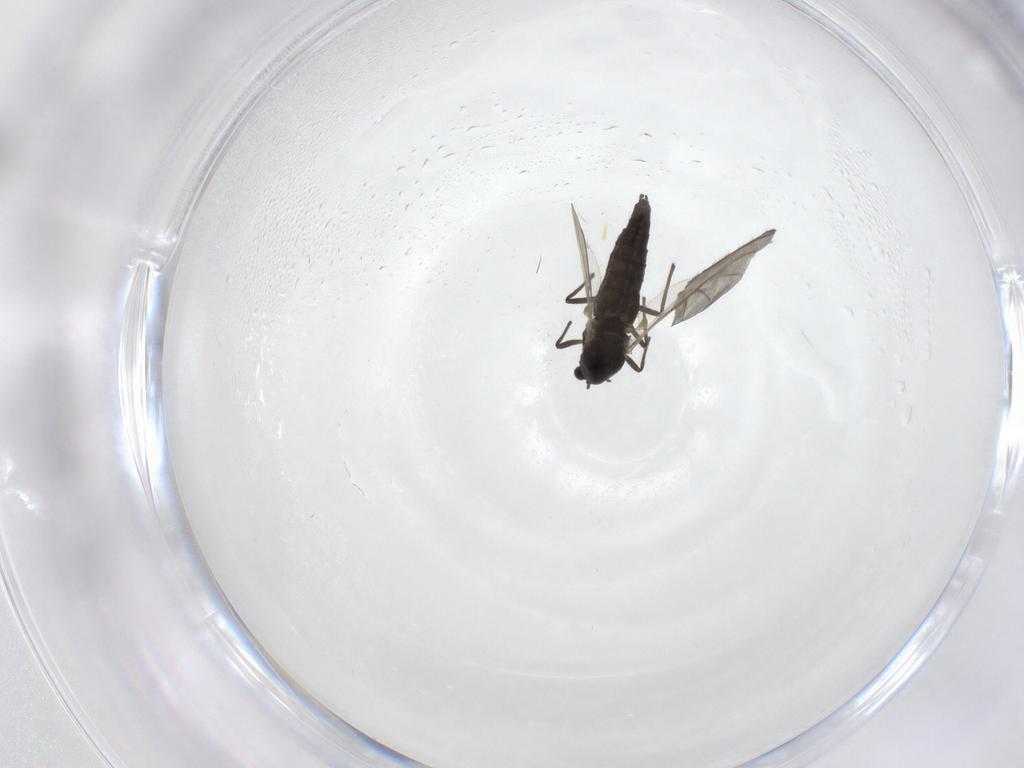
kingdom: Animalia
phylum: Arthropoda
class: Insecta
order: Diptera
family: Chironomidae
